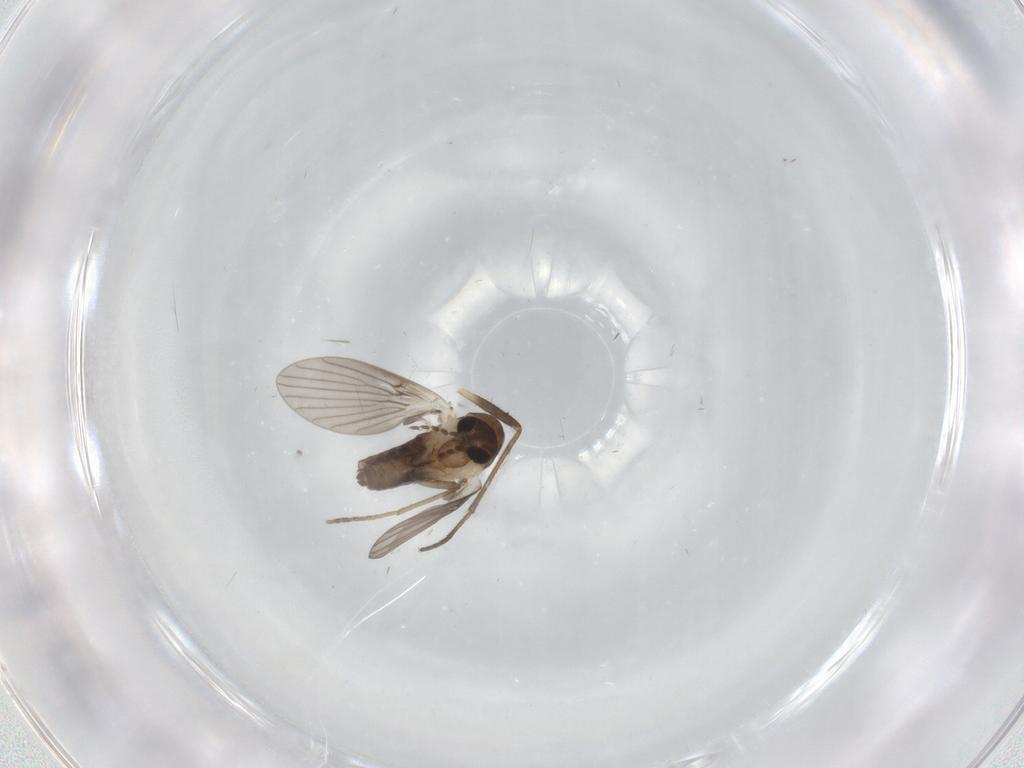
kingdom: Animalia
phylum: Arthropoda
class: Insecta
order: Diptera
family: Sciaridae
